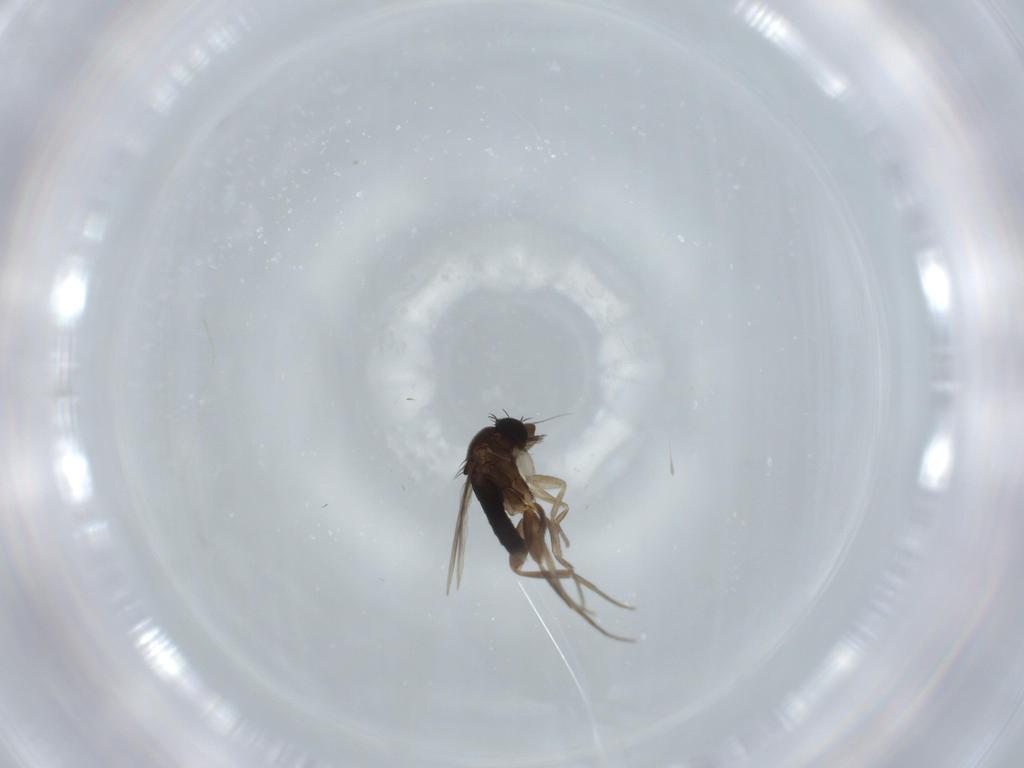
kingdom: Animalia
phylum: Arthropoda
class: Insecta
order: Diptera
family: Phoridae
